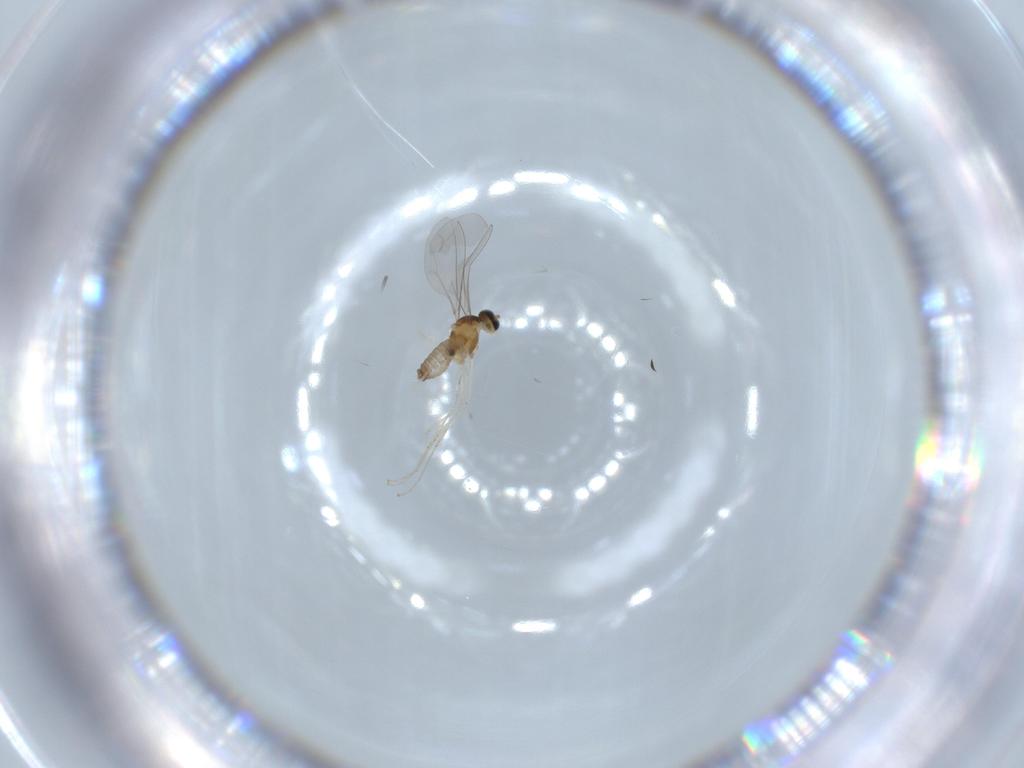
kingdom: Animalia
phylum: Arthropoda
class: Insecta
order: Diptera
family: Cecidomyiidae
